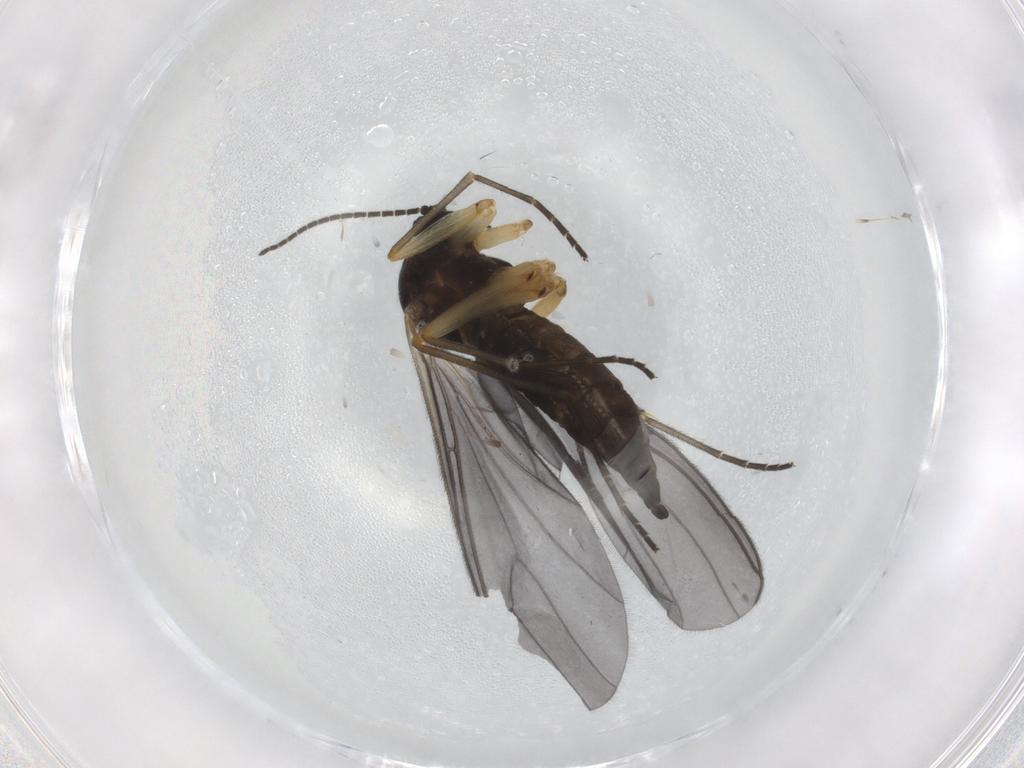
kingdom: Animalia
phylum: Arthropoda
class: Insecta
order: Diptera
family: Sciaridae
